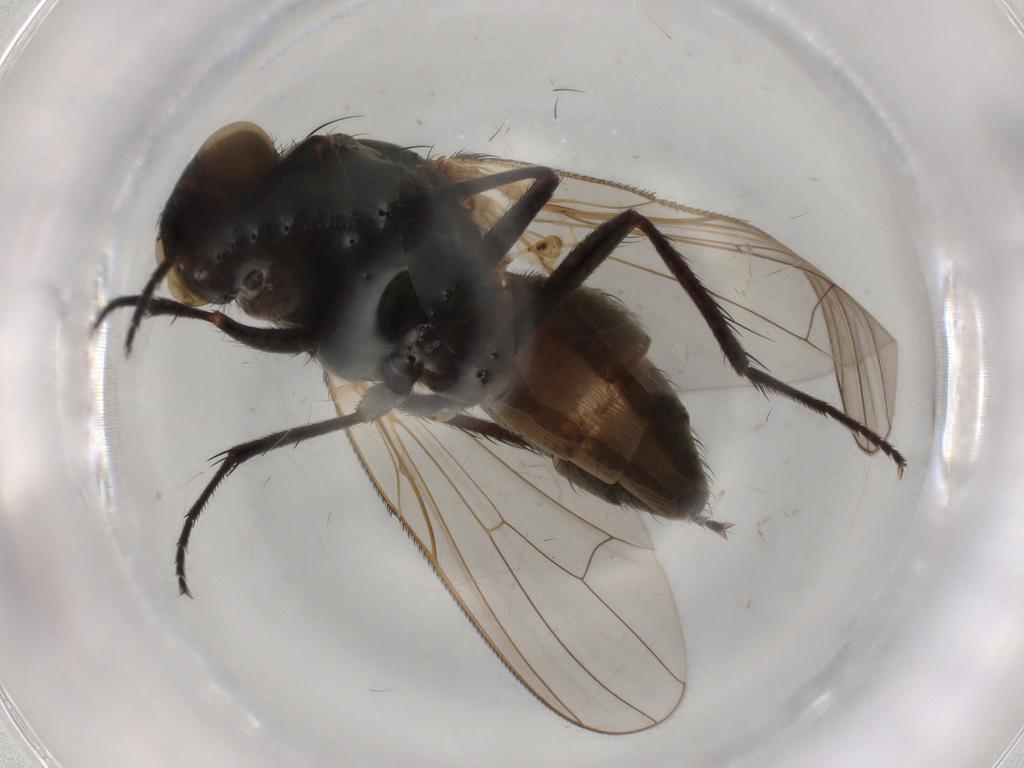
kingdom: Animalia
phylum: Arthropoda
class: Insecta
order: Diptera
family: Anthomyiidae
